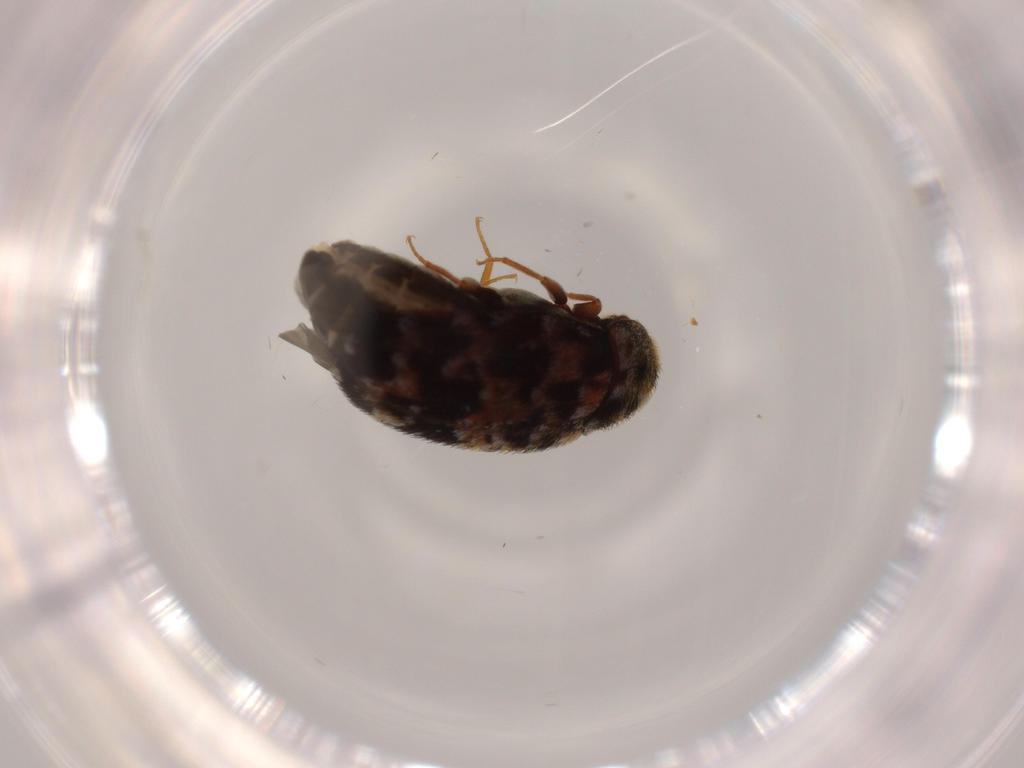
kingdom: Animalia
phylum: Arthropoda
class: Insecta
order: Coleoptera
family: Dermestidae
